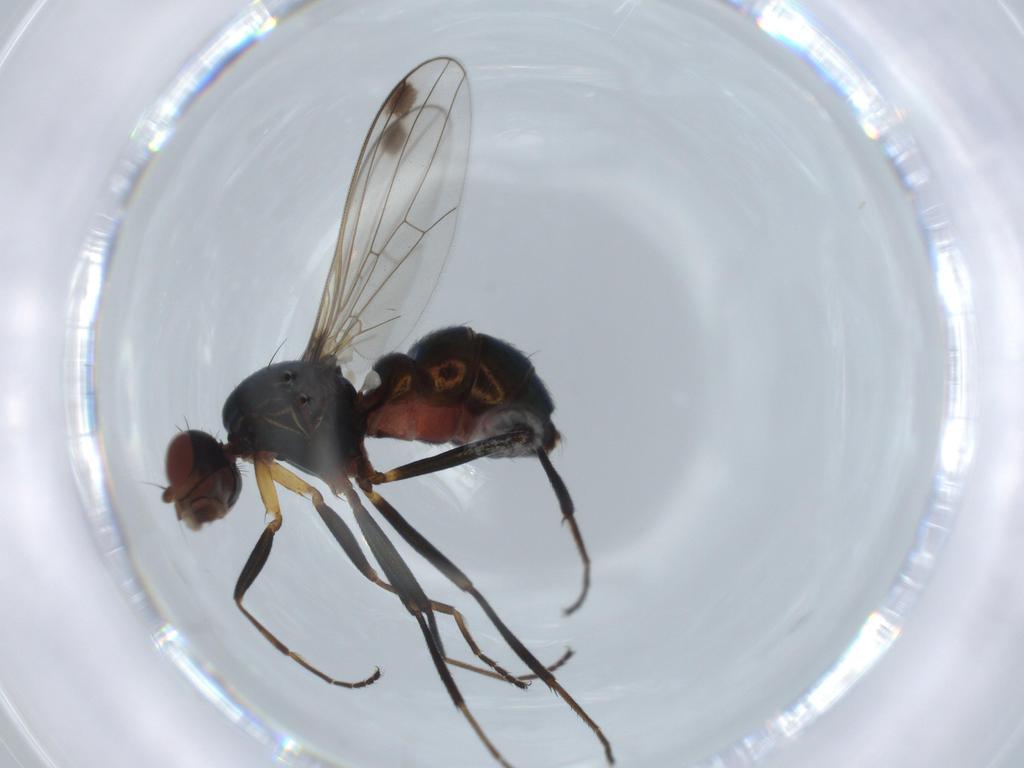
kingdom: Animalia
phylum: Arthropoda
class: Insecta
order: Diptera
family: Sepsidae
